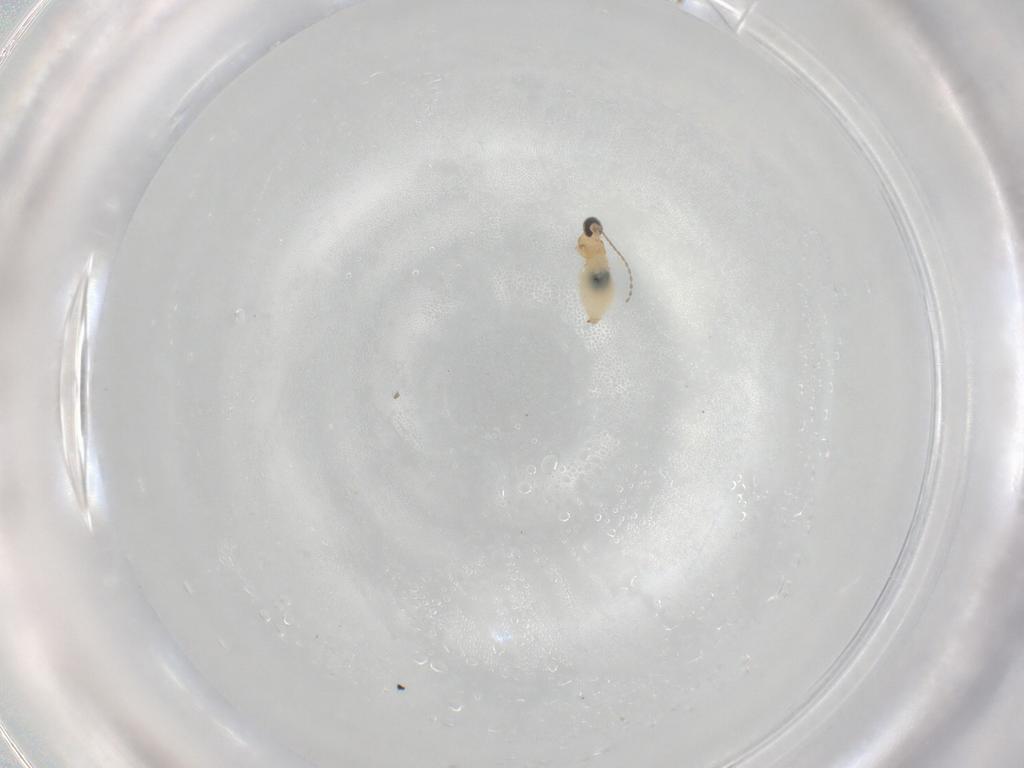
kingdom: Animalia
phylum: Arthropoda
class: Insecta
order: Diptera
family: Cecidomyiidae
